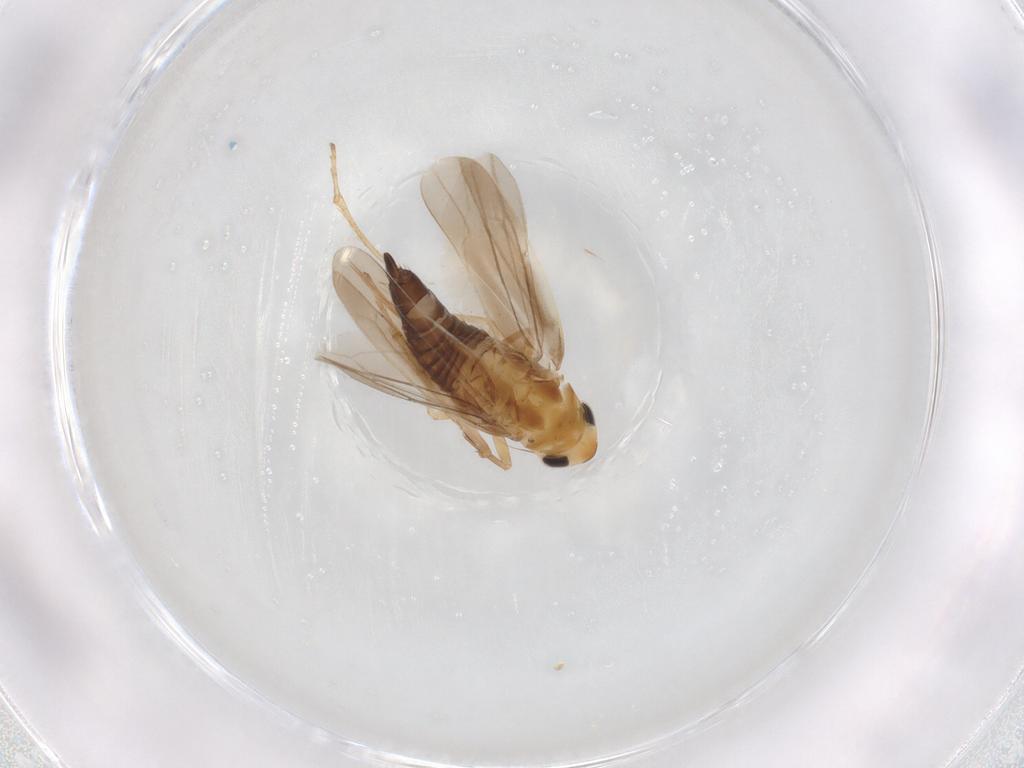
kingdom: Animalia
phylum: Arthropoda
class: Insecta
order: Hemiptera
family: Cicadellidae
